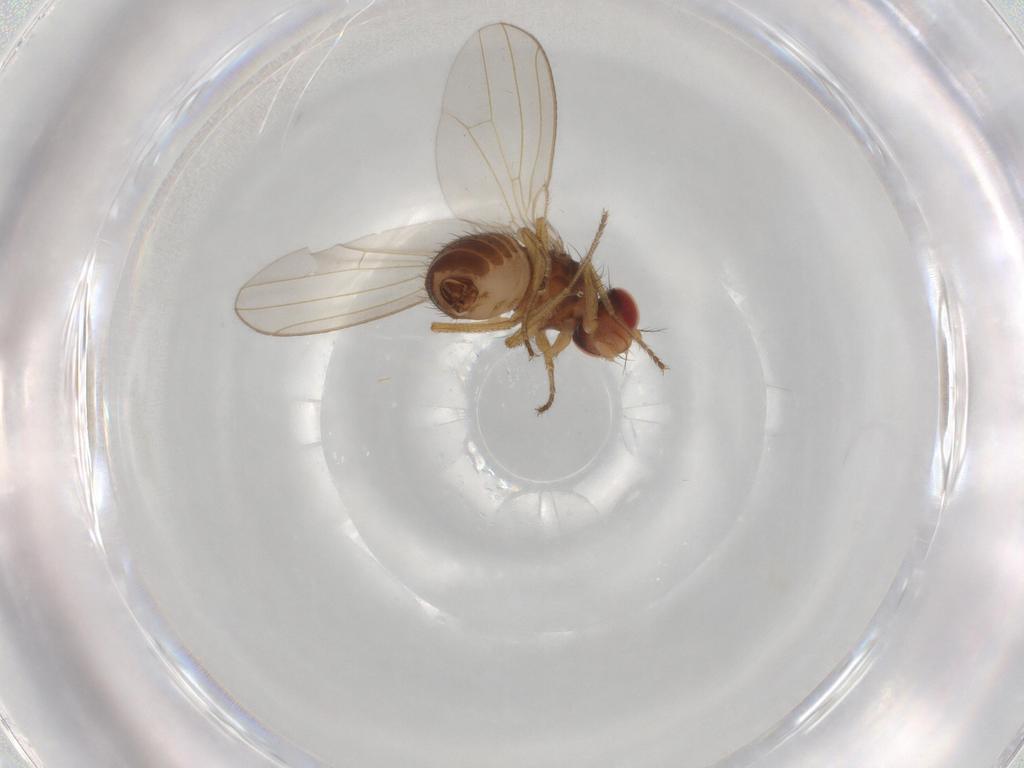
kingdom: Animalia
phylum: Arthropoda
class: Insecta
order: Diptera
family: Drosophilidae
